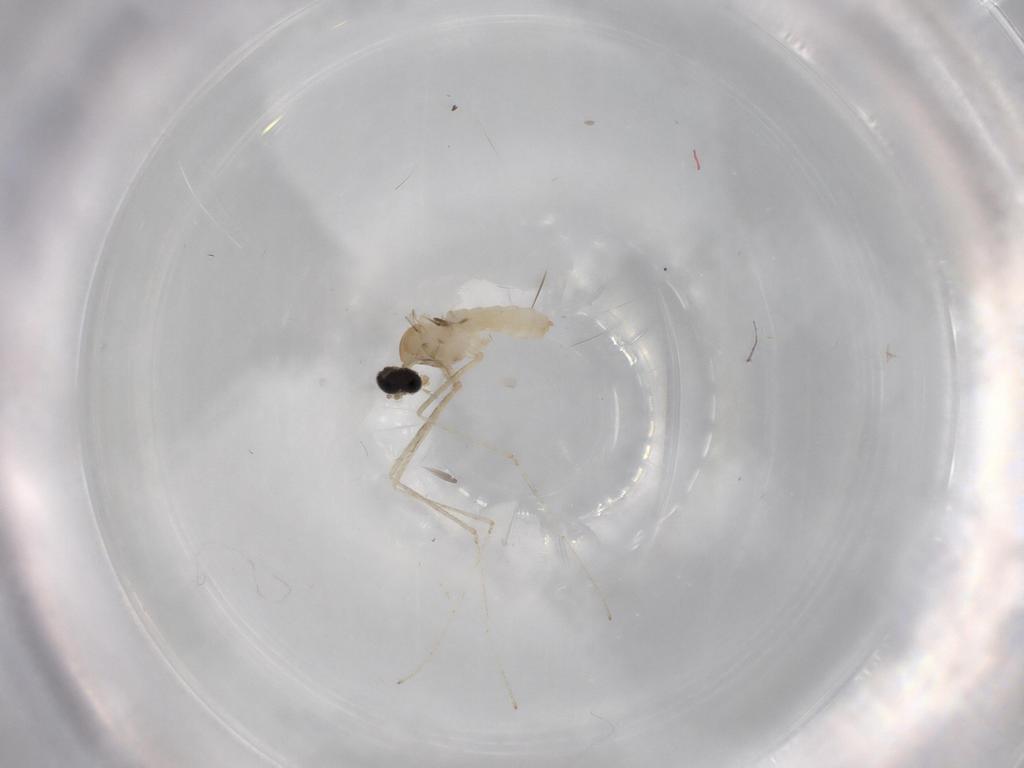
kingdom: Animalia
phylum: Arthropoda
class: Insecta
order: Diptera
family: Cecidomyiidae
